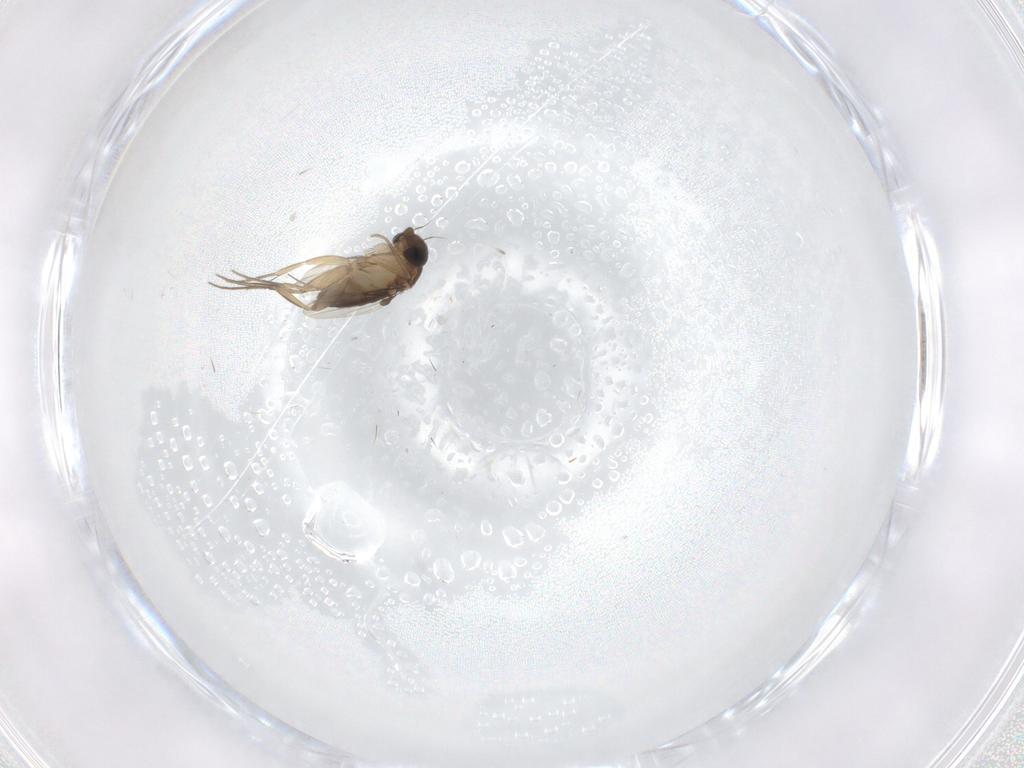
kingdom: Animalia
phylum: Arthropoda
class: Insecta
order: Diptera
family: Phoridae
